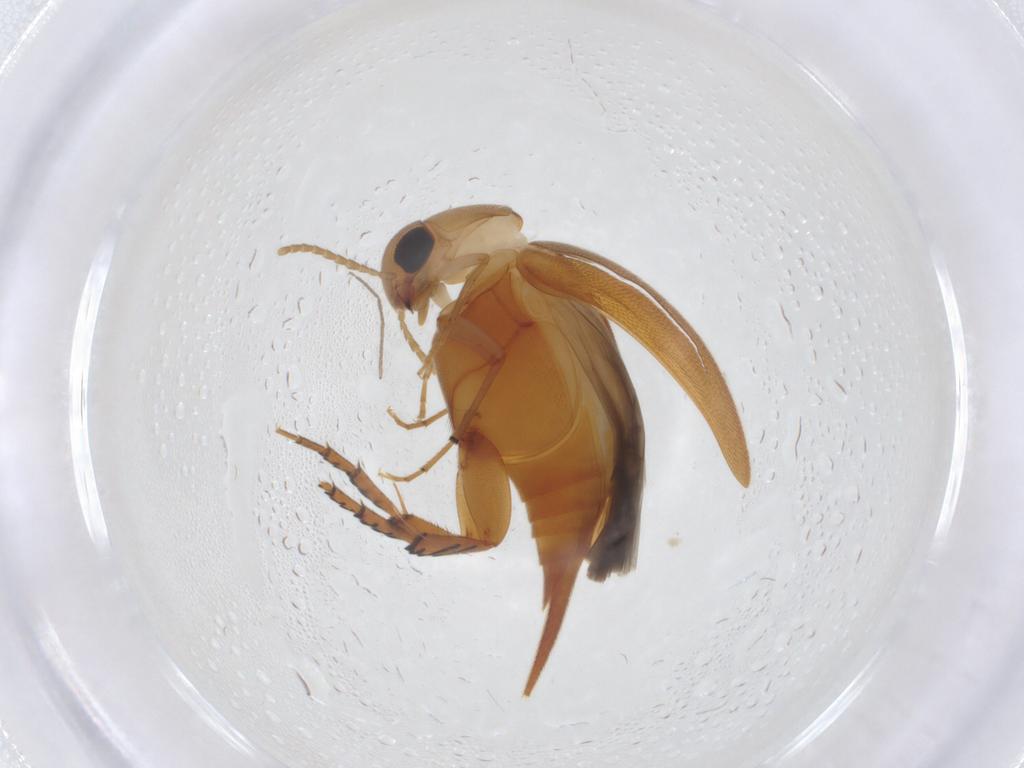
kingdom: Animalia
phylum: Arthropoda
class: Insecta
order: Coleoptera
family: Mordellidae
